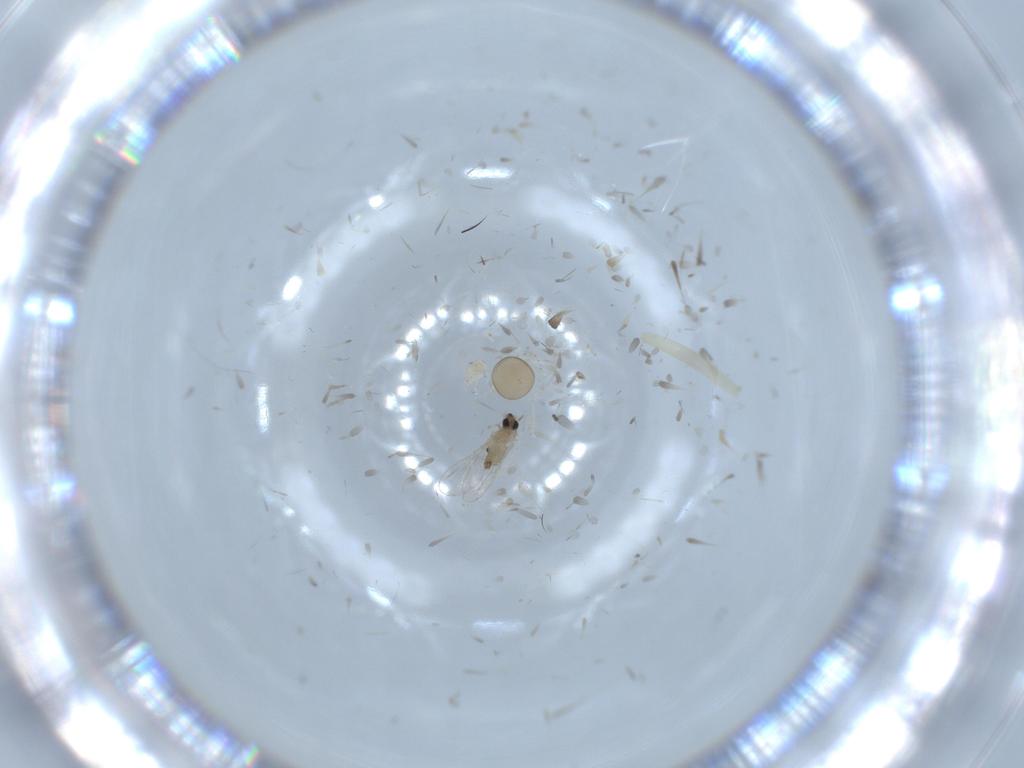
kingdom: Animalia
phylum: Arthropoda
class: Insecta
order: Diptera
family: Cecidomyiidae
